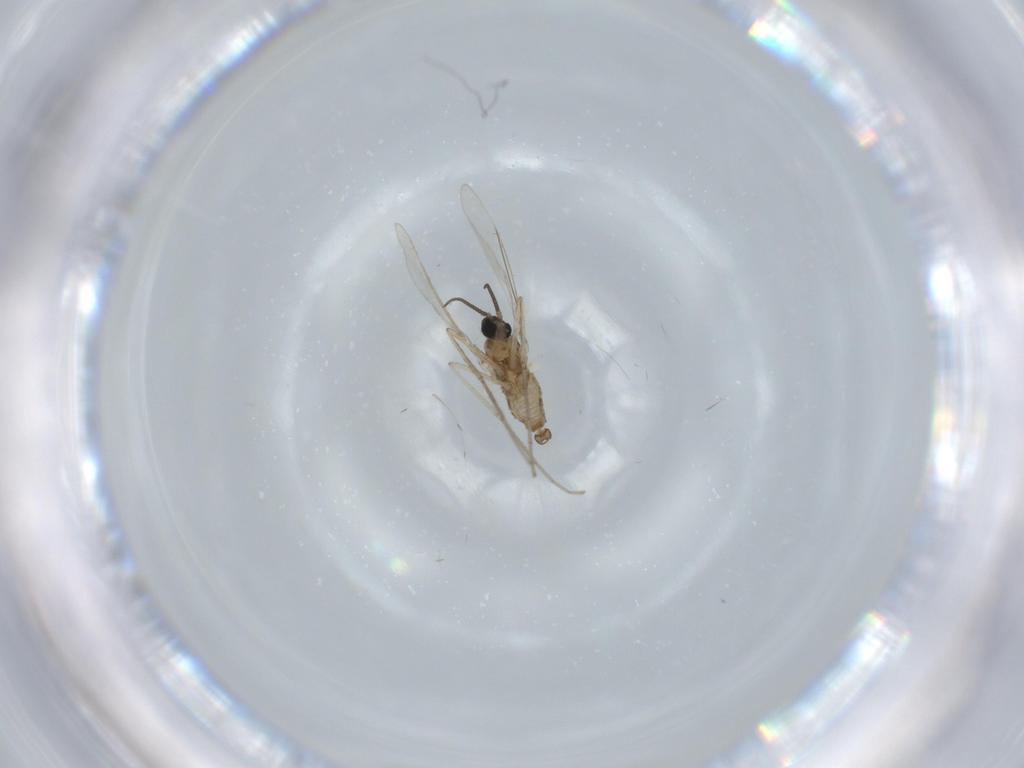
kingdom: Animalia
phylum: Arthropoda
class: Insecta
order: Diptera
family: Cecidomyiidae
